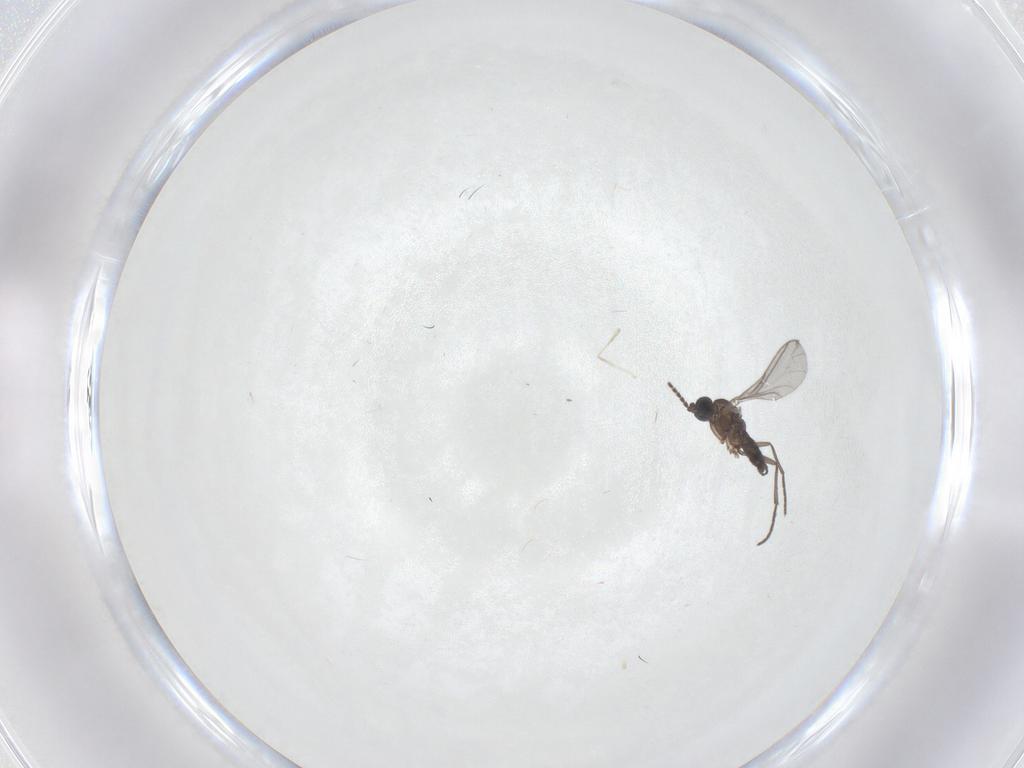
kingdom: Animalia
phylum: Arthropoda
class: Insecta
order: Diptera
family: Sciaridae
